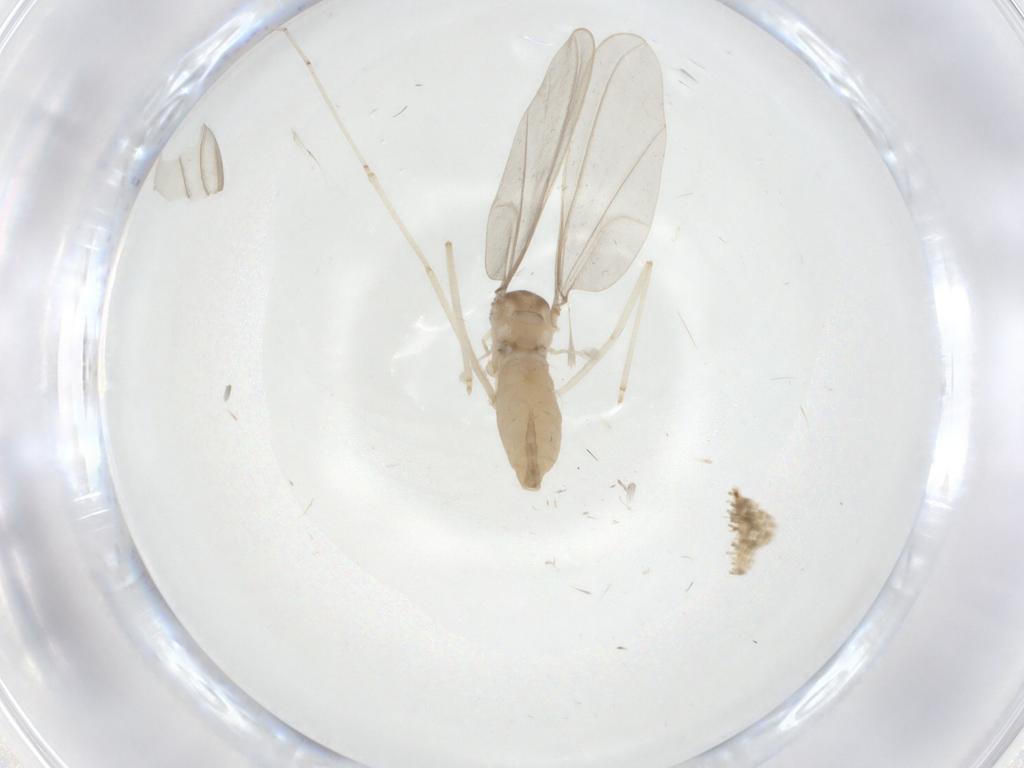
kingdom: Animalia
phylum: Arthropoda
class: Insecta
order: Diptera
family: Cecidomyiidae
